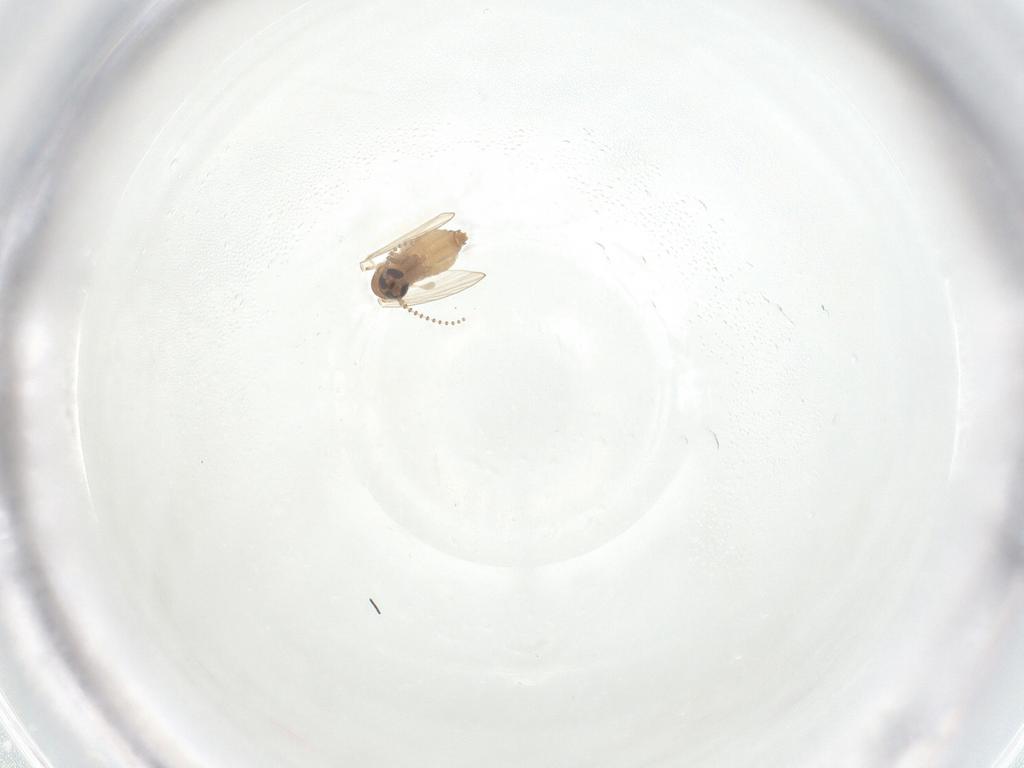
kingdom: Animalia
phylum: Arthropoda
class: Insecta
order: Diptera
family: Psychodidae
